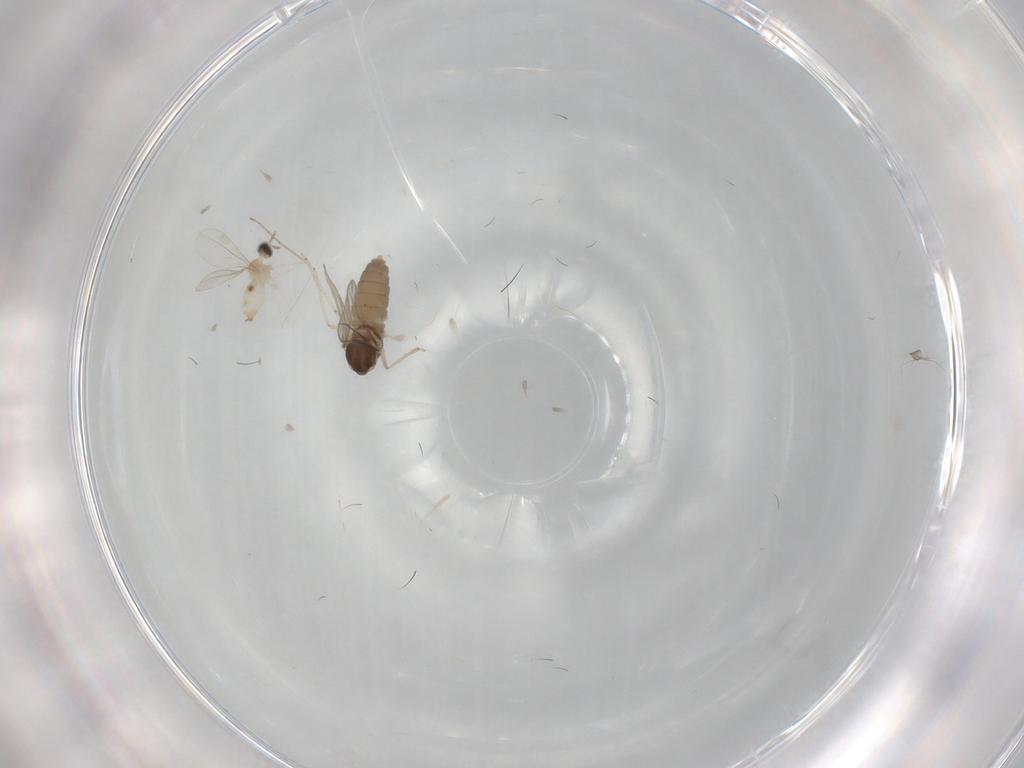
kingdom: Animalia
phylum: Arthropoda
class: Insecta
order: Diptera
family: Cecidomyiidae
